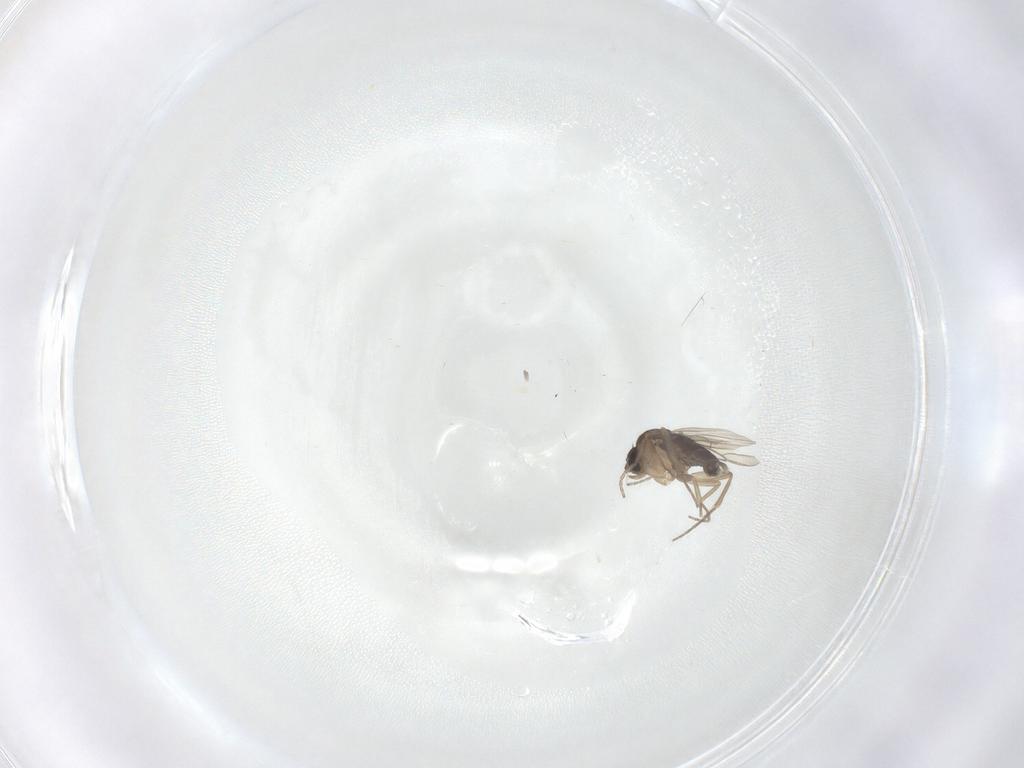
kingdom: Animalia
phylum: Arthropoda
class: Insecta
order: Diptera
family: Phoridae
